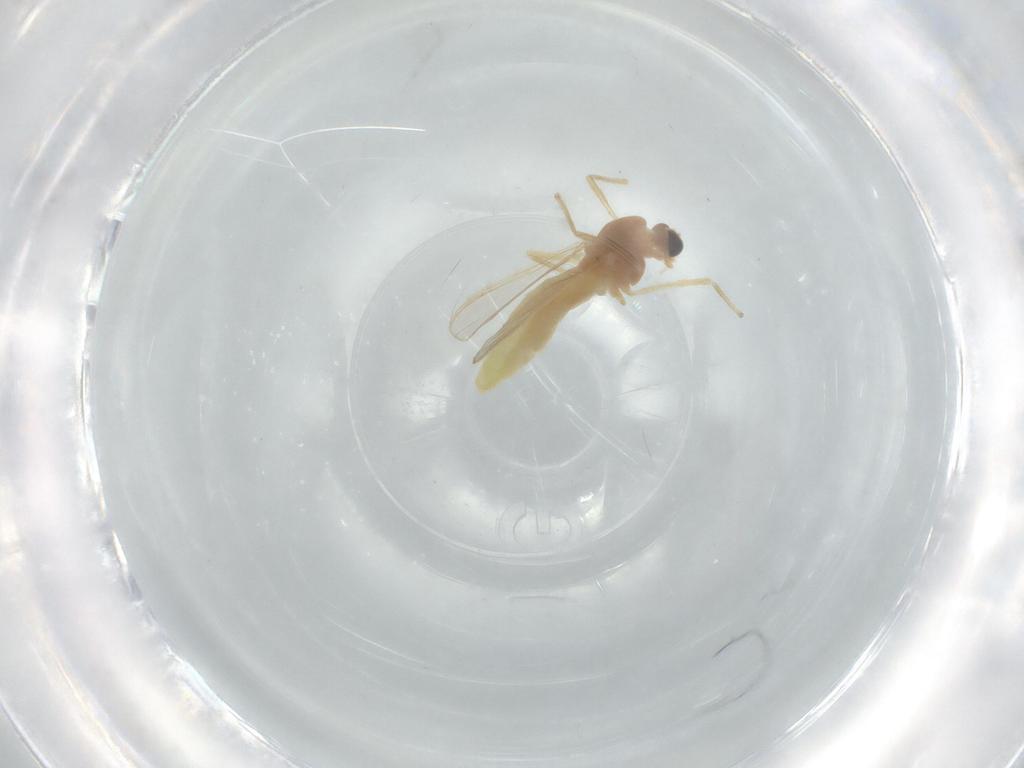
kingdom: Animalia
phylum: Arthropoda
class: Insecta
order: Diptera
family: Chironomidae
